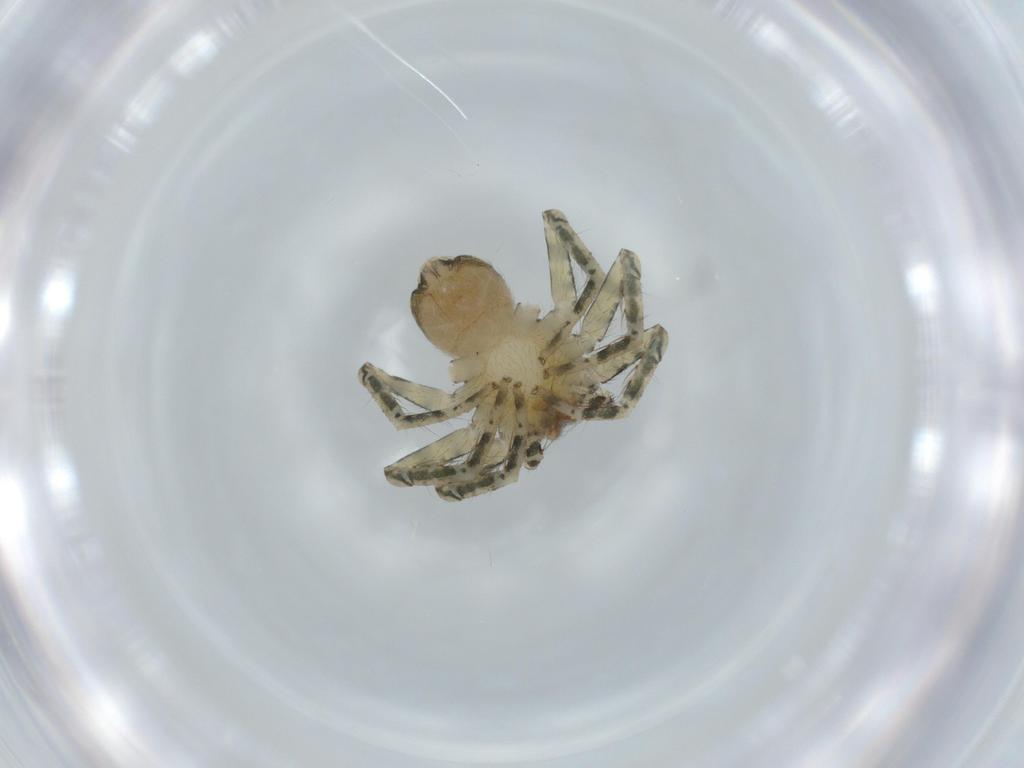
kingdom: Animalia
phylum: Arthropoda
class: Arachnida
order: Araneae
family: Selenopidae
